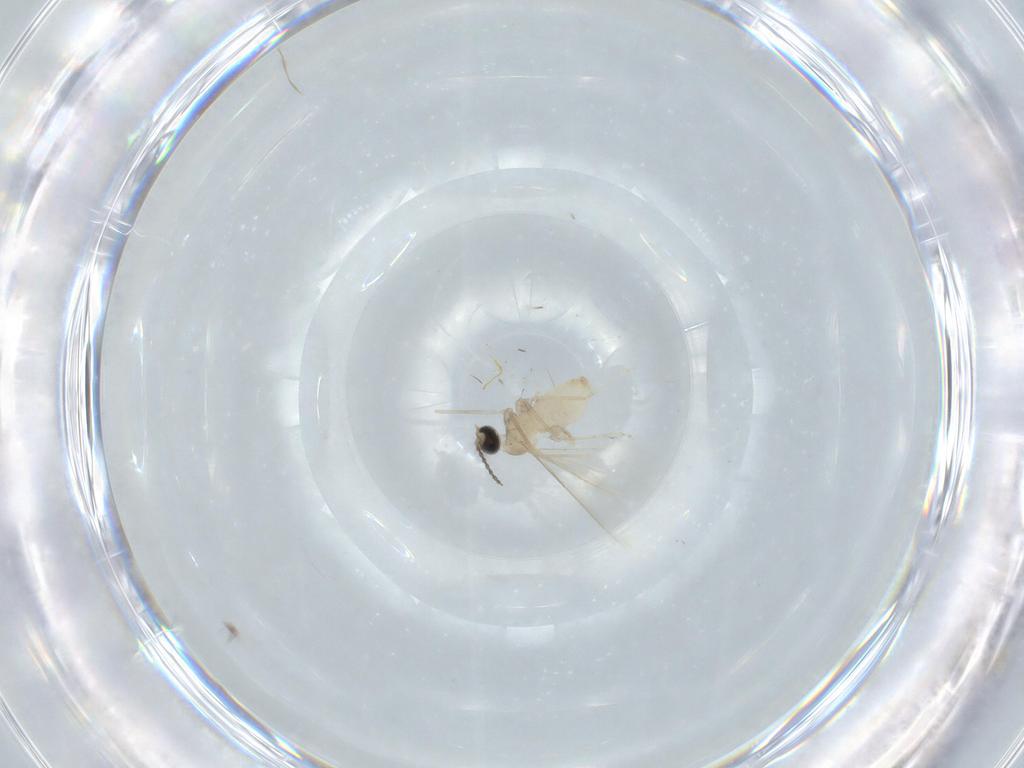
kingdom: Animalia
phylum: Arthropoda
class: Insecta
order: Diptera
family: Cecidomyiidae
